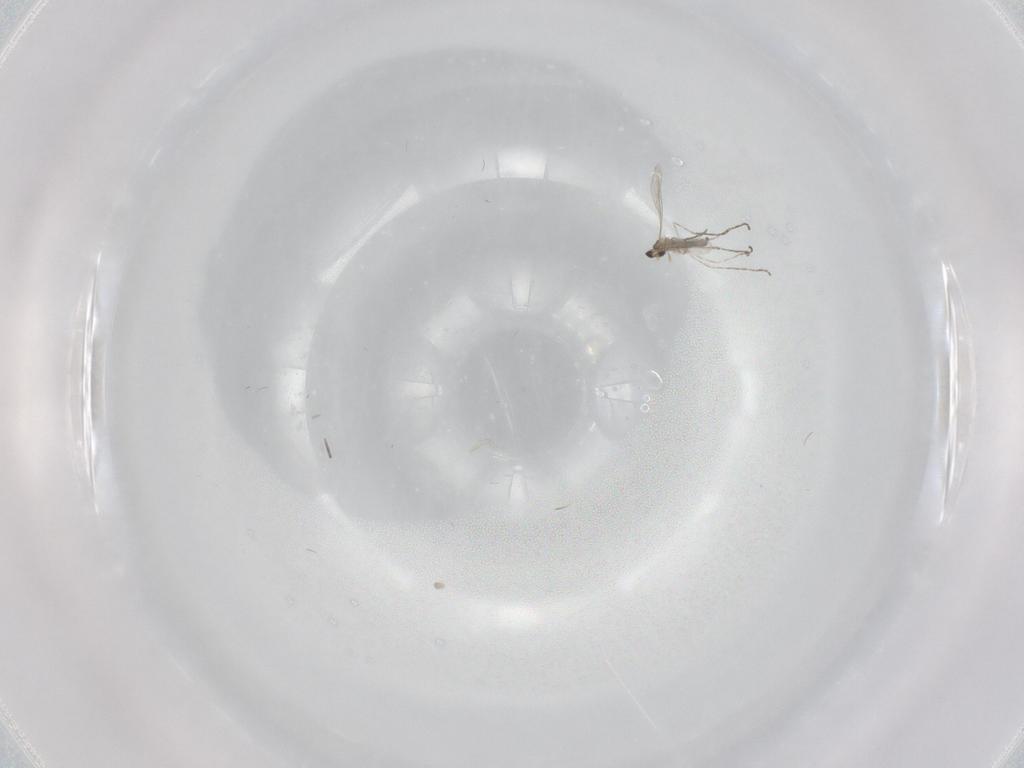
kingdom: Animalia
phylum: Arthropoda
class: Insecta
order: Diptera
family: Cecidomyiidae
